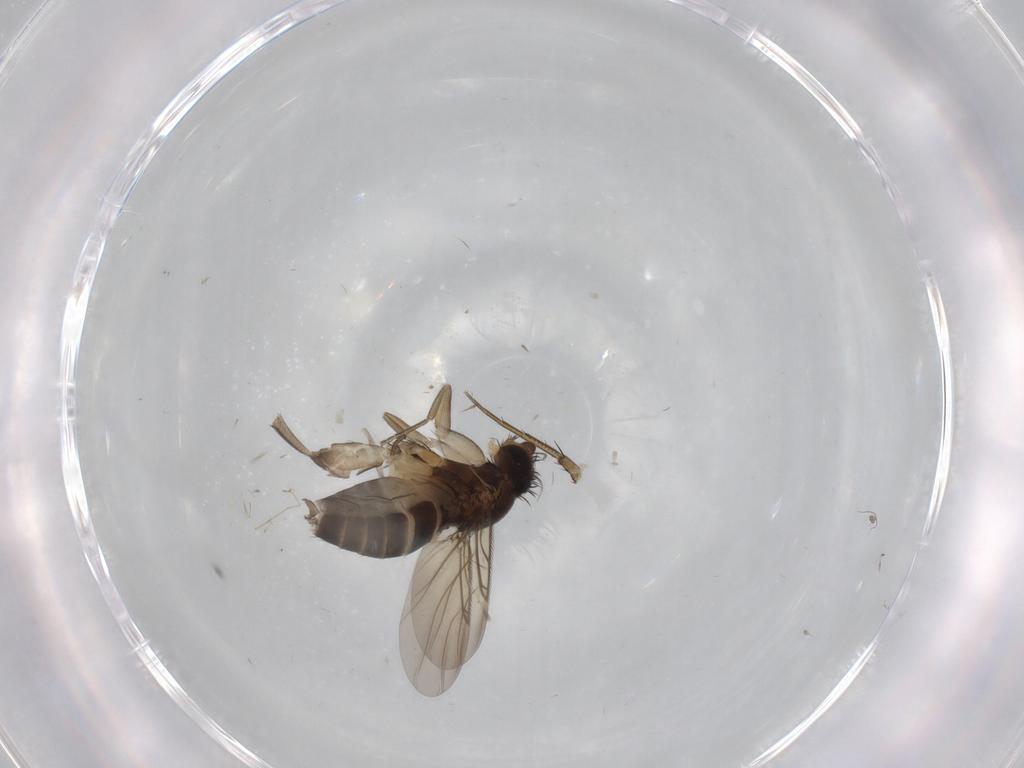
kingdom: Animalia
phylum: Arthropoda
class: Insecta
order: Diptera
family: Phoridae
